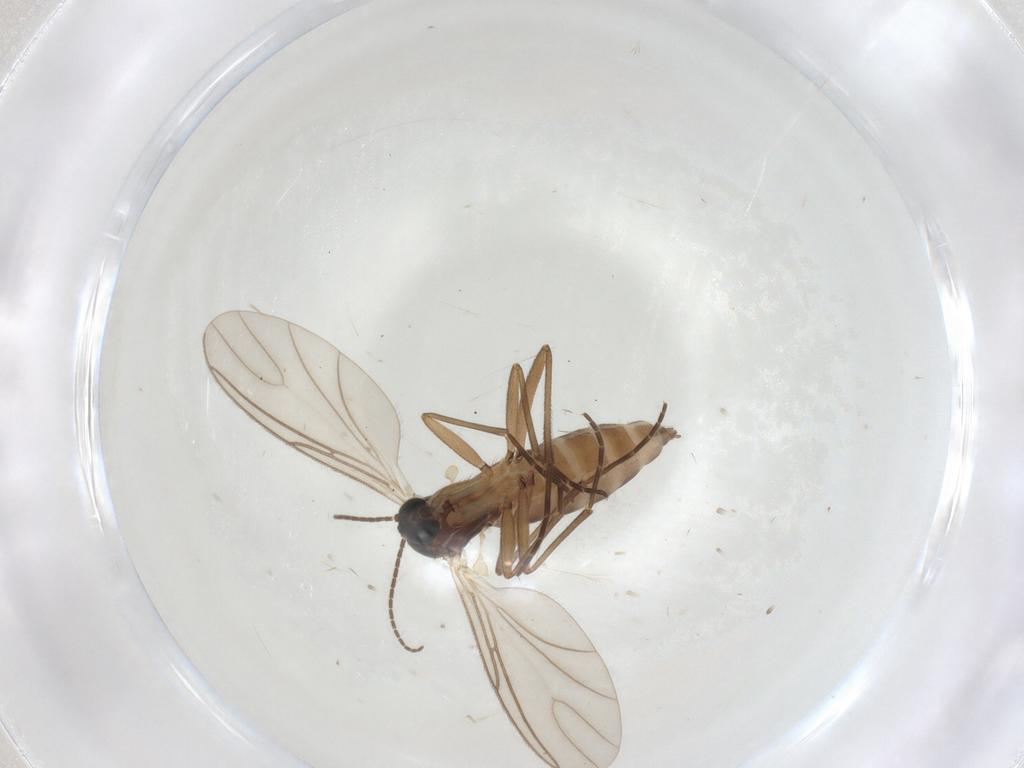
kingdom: Animalia
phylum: Arthropoda
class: Insecta
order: Diptera
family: Sciaridae
